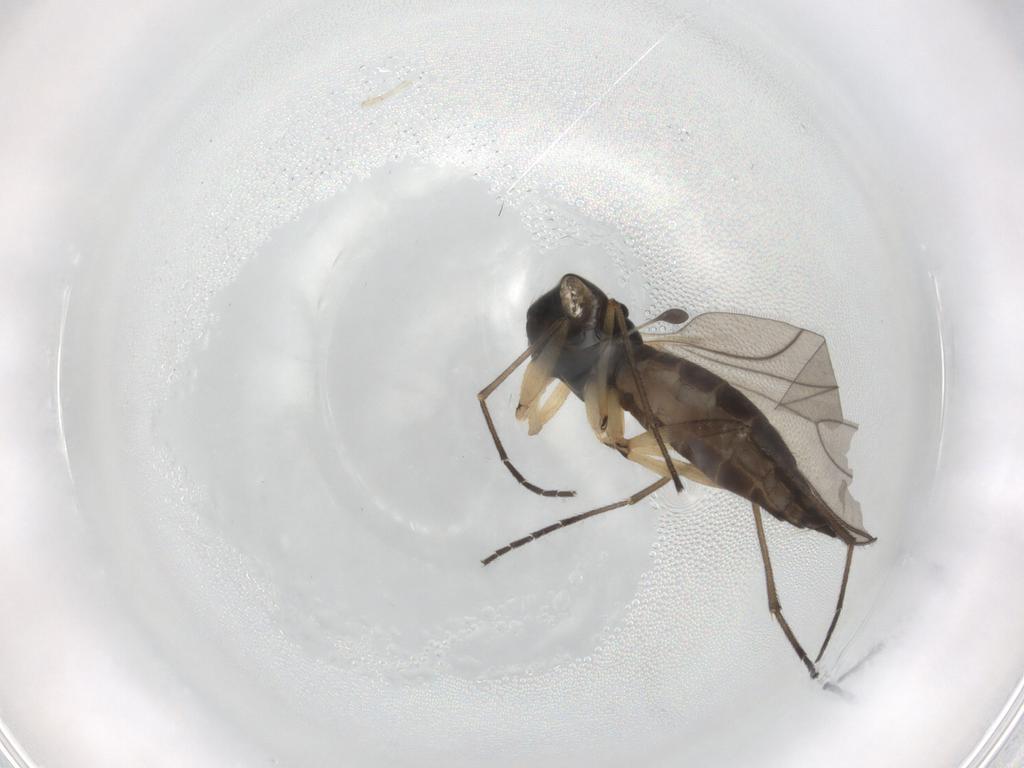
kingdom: Animalia
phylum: Arthropoda
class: Insecta
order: Diptera
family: Sciaridae
